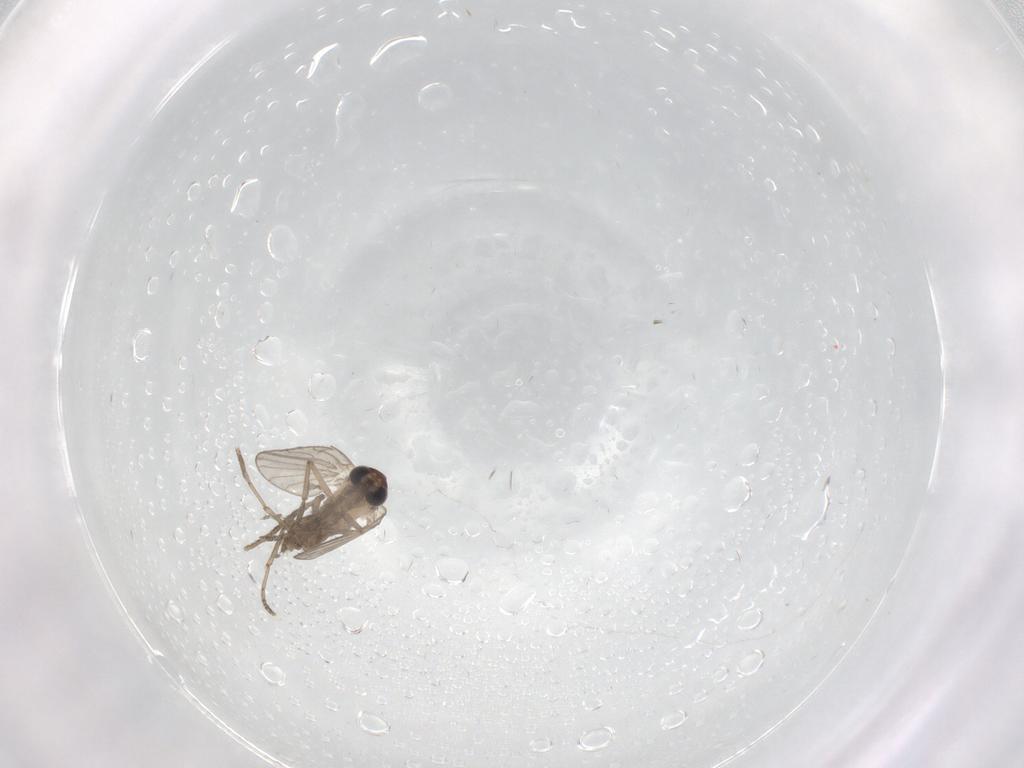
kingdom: Animalia
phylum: Arthropoda
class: Insecta
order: Diptera
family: Psychodidae
